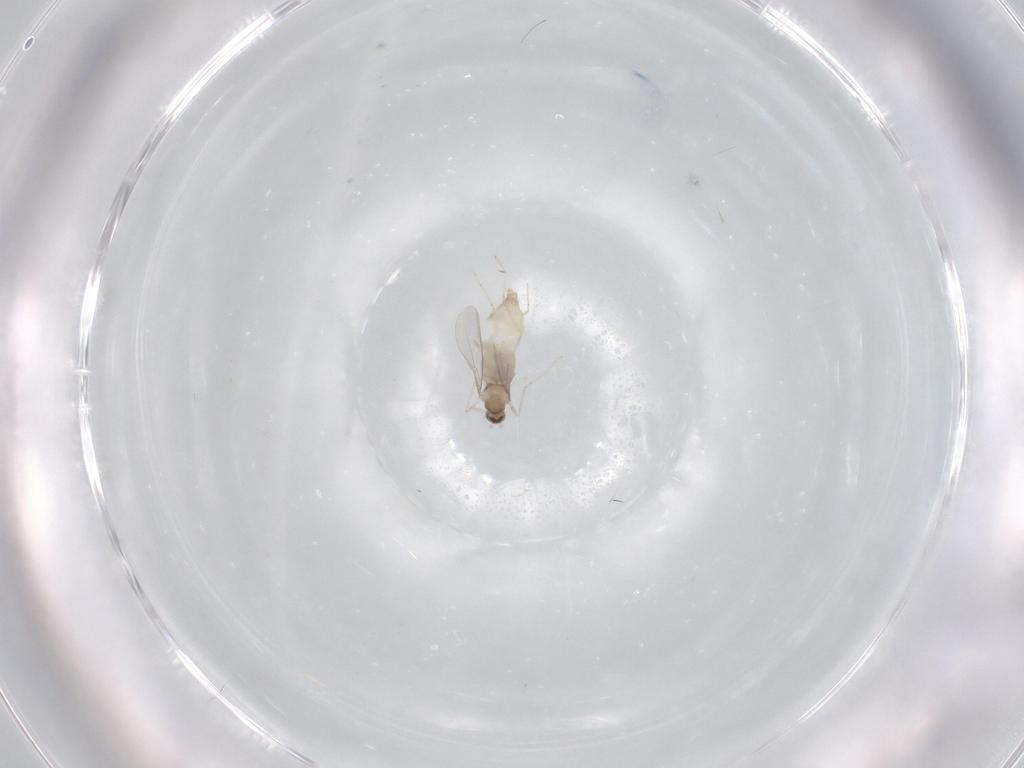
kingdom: Animalia
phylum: Arthropoda
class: Insecta
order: Diptera
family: Cecidomyiidae
